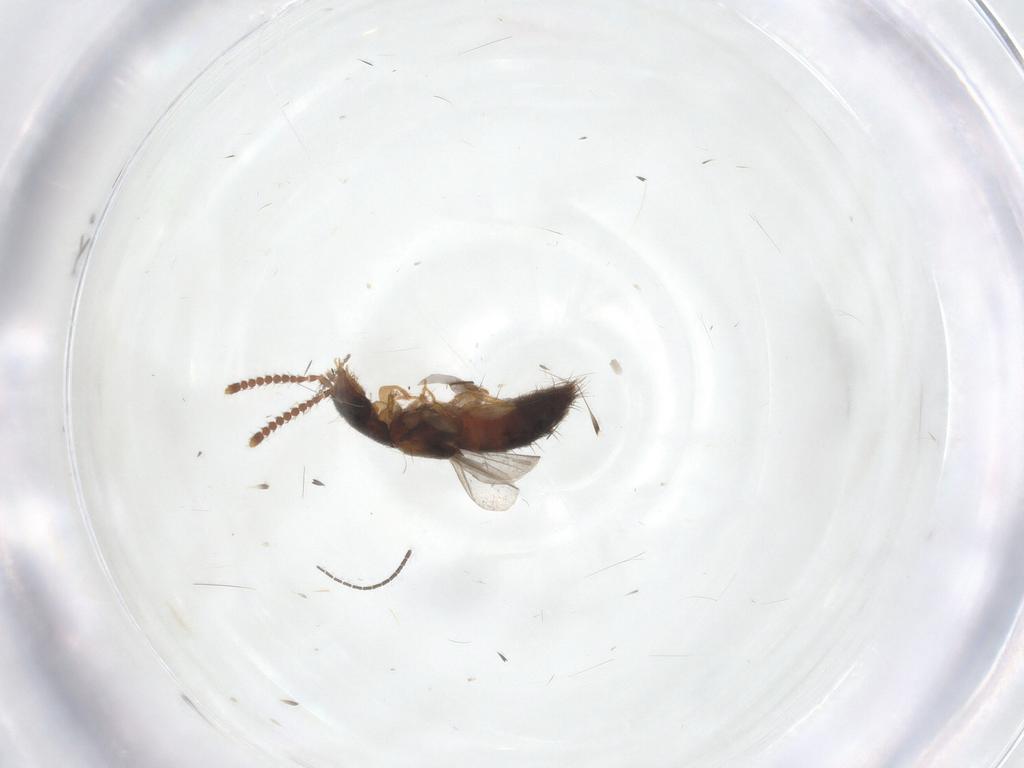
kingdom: Animalia
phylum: Arthropoda
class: Insecta
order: Coleoptera
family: Staphylinidae
